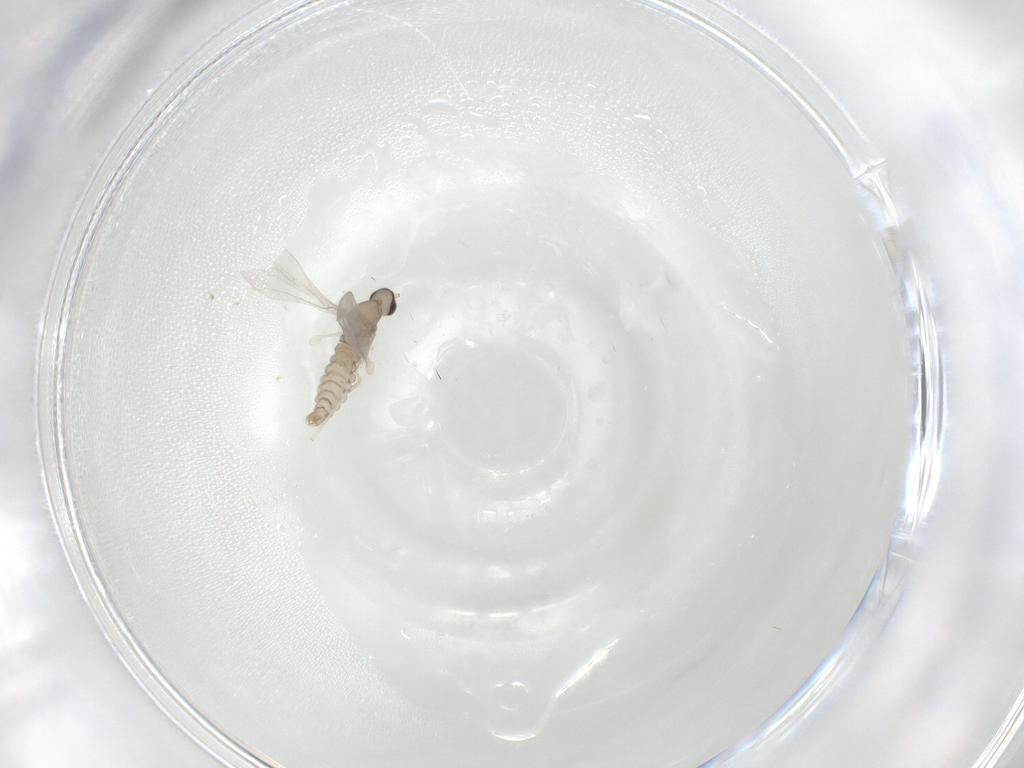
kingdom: Animalia
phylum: Arthropoda
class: Insecta
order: Diptera
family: Cecidomyiidae
